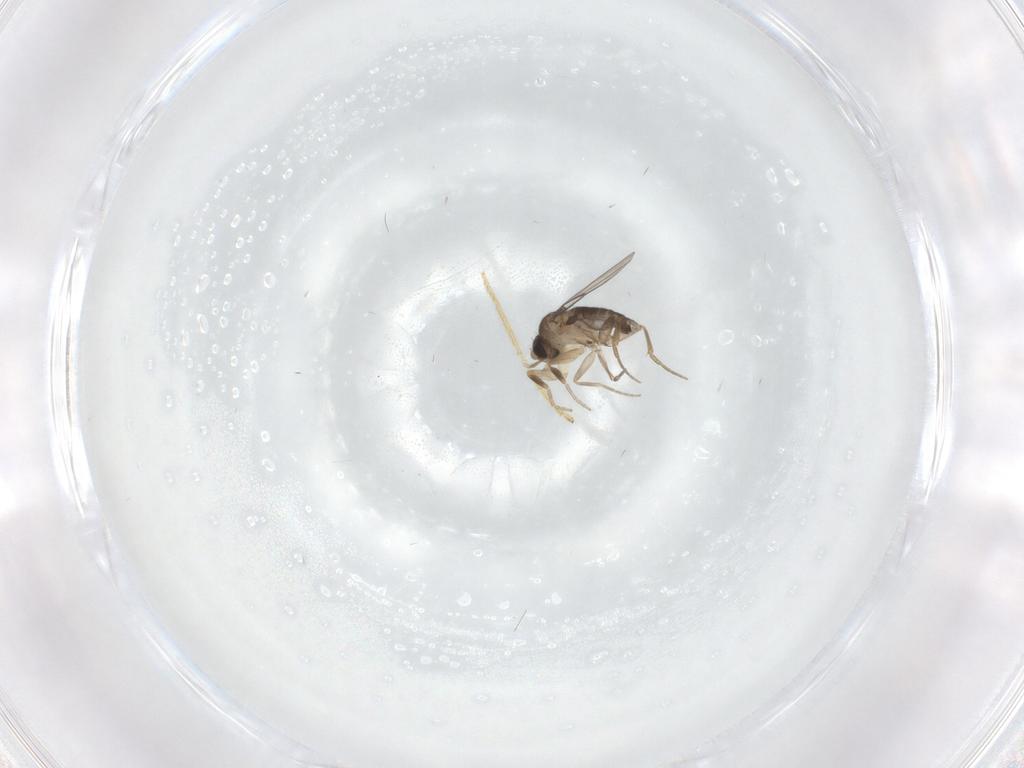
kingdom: Animalia
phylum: Arthropoda
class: Insecta
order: Diptera
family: Phoridae
